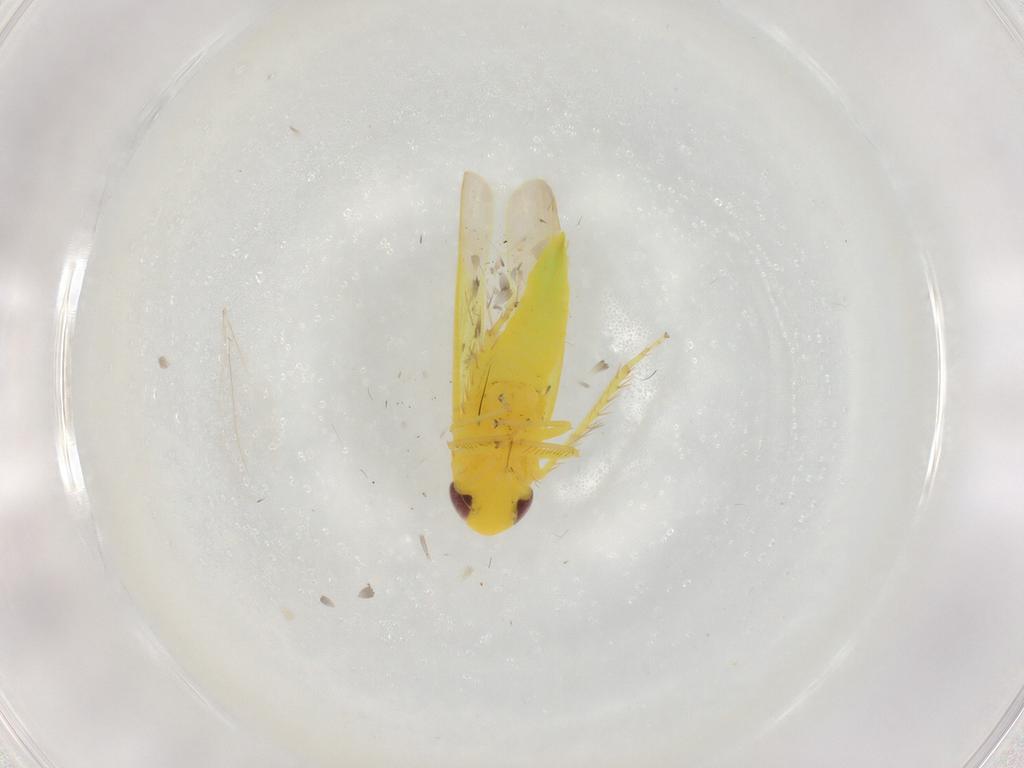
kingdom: Animalia
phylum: Arthropoda
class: Insecta
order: Hemiptera
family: Cicadellidae
